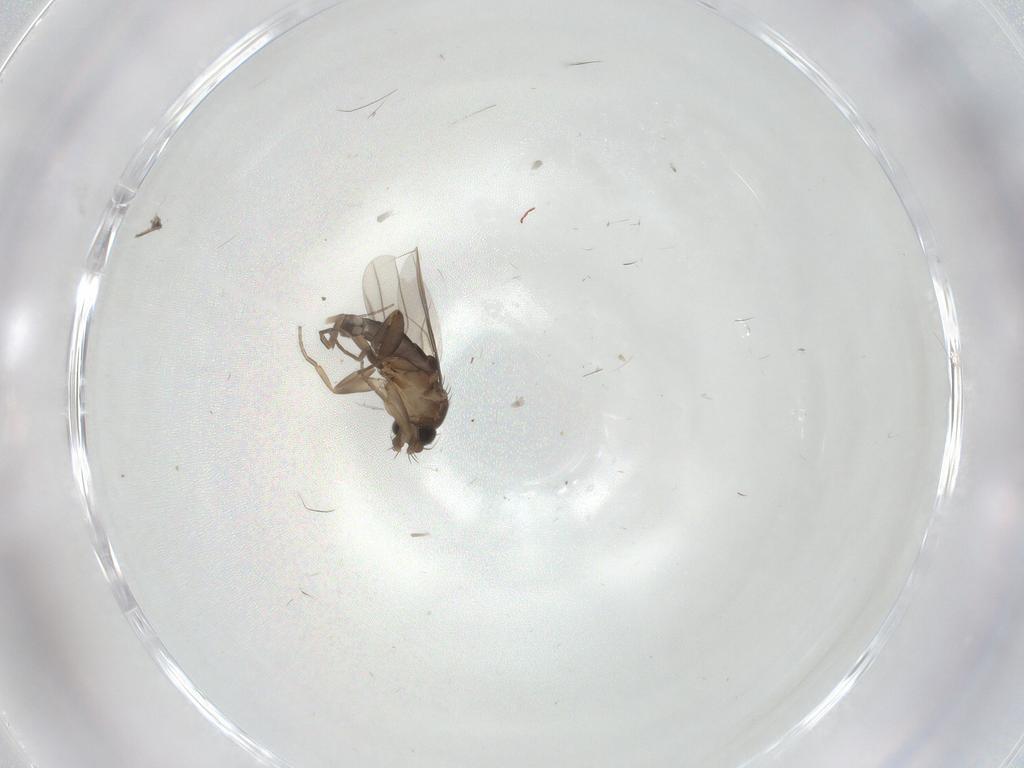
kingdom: Animalia
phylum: Arthropoda
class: Insecta
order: Diptera
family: Phoridae
